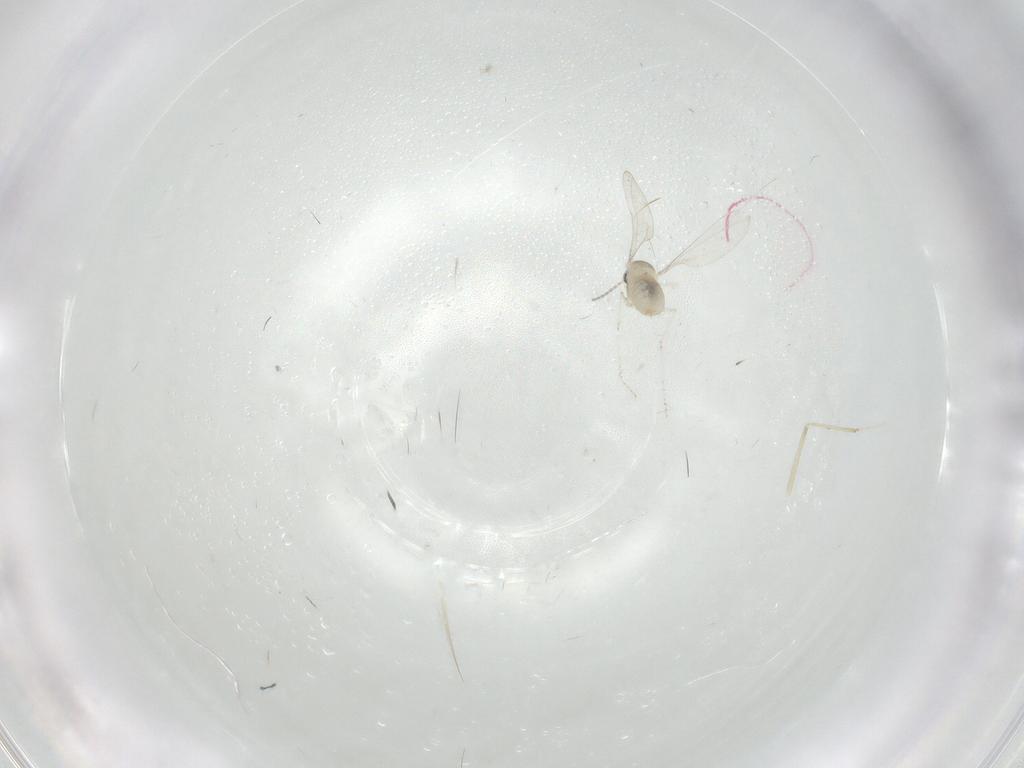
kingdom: Animalia
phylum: Arthropoda
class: Insecta
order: Diptera
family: Cecidomyiidae
